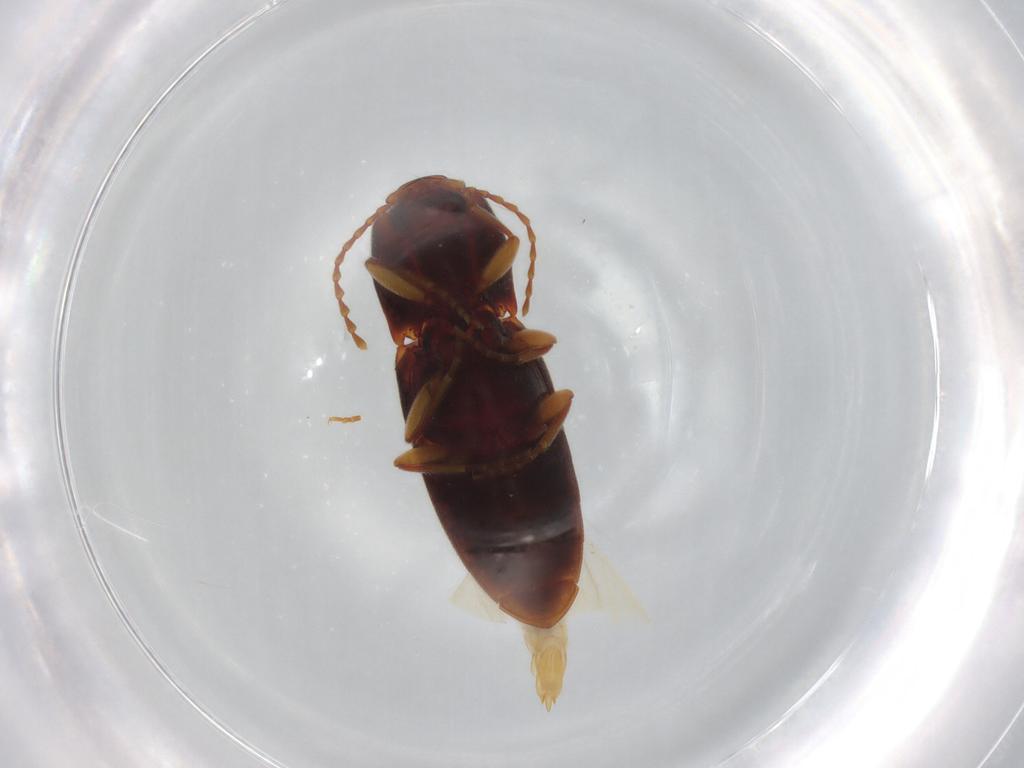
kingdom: Animalia
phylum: Arthropoda
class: Insecta
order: Coleoptera
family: Elateridae
